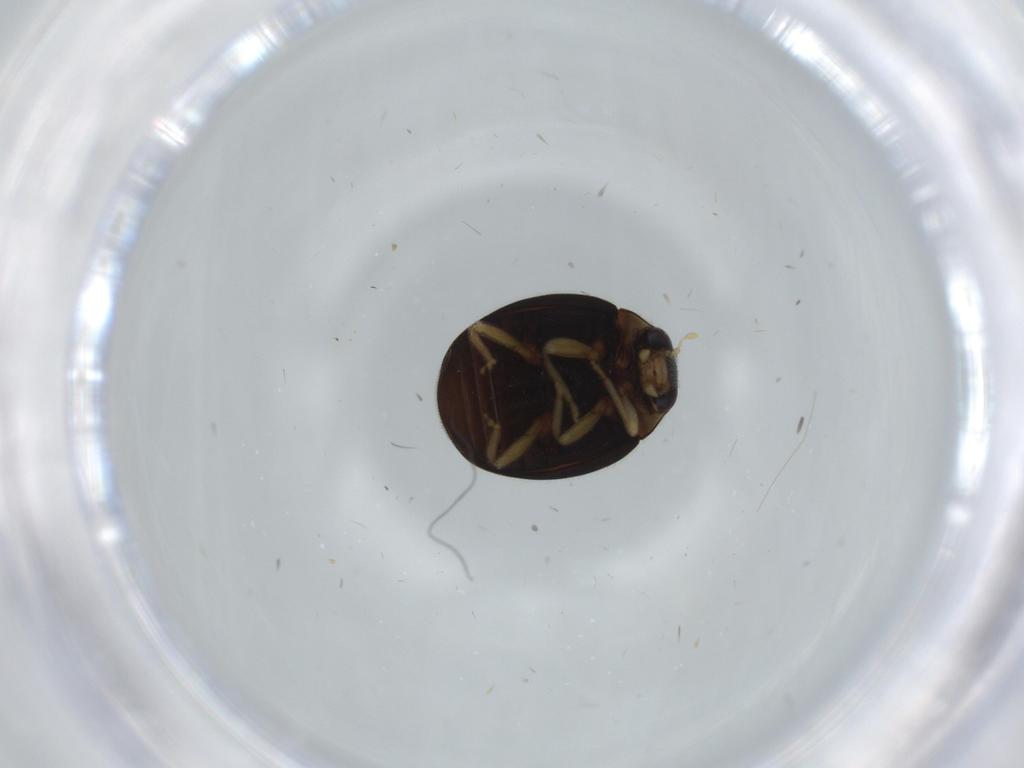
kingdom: Animalia
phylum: Arthropoda
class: Insecta
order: Coleoptera
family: Coccinellidae
